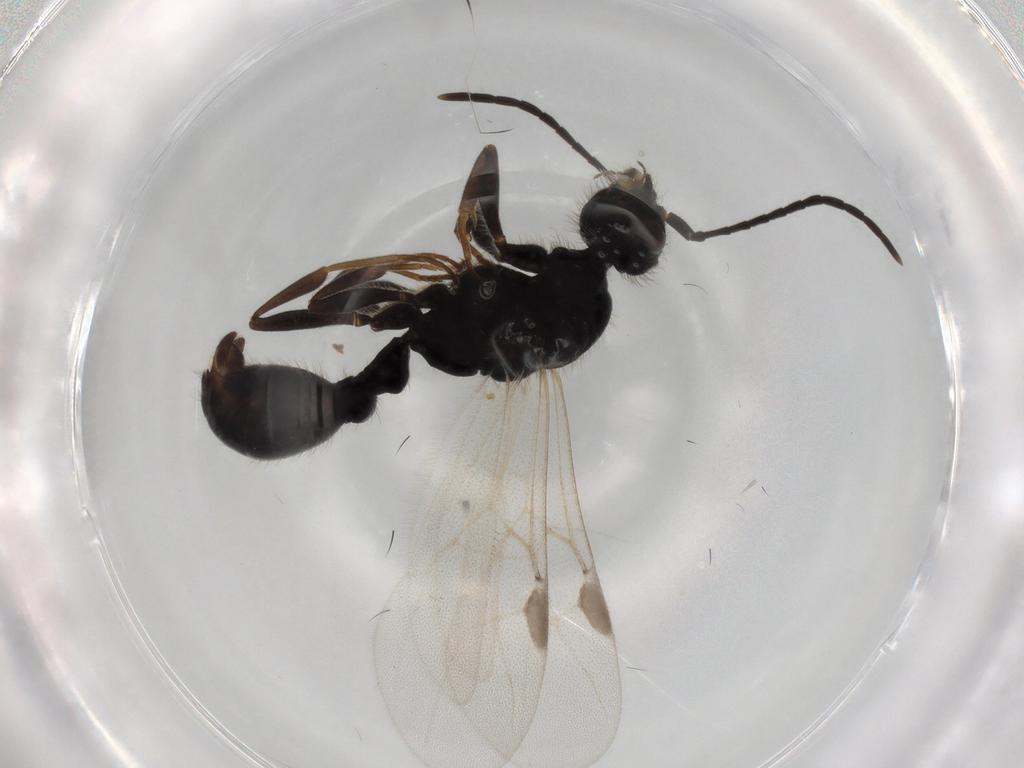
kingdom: Animalia
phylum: Arthropoda
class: Insecta
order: Hymenoptera
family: Formicidae
